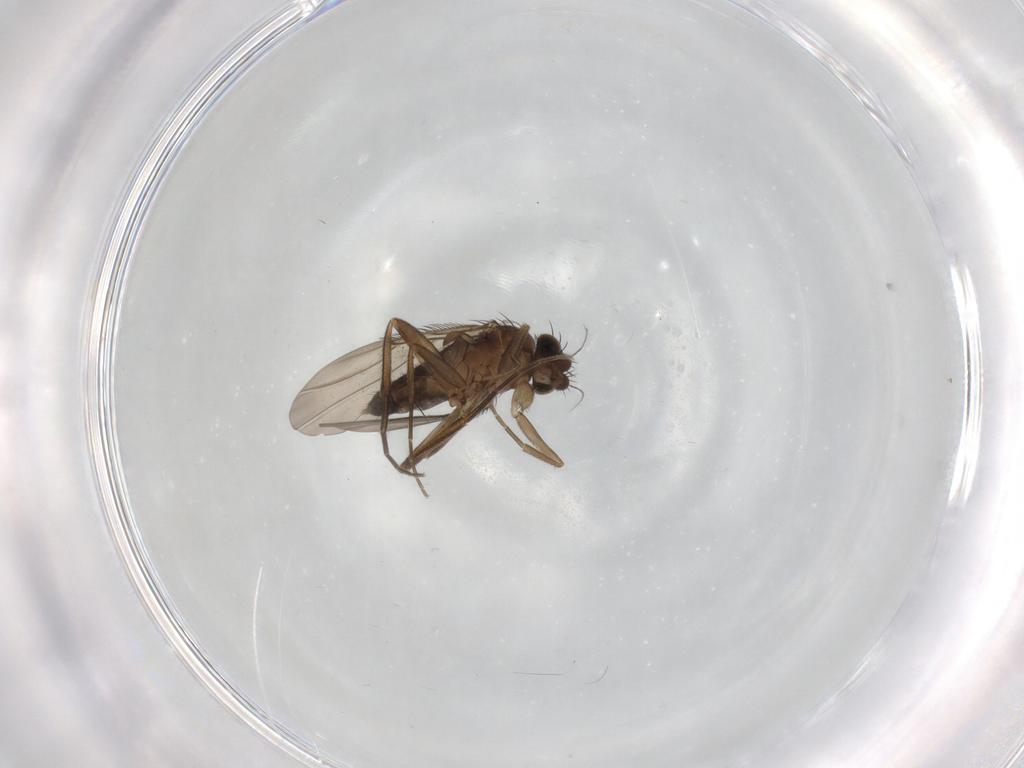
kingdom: Animalia
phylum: Arthropoda
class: Insecta
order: Diptera
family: Phoridae
